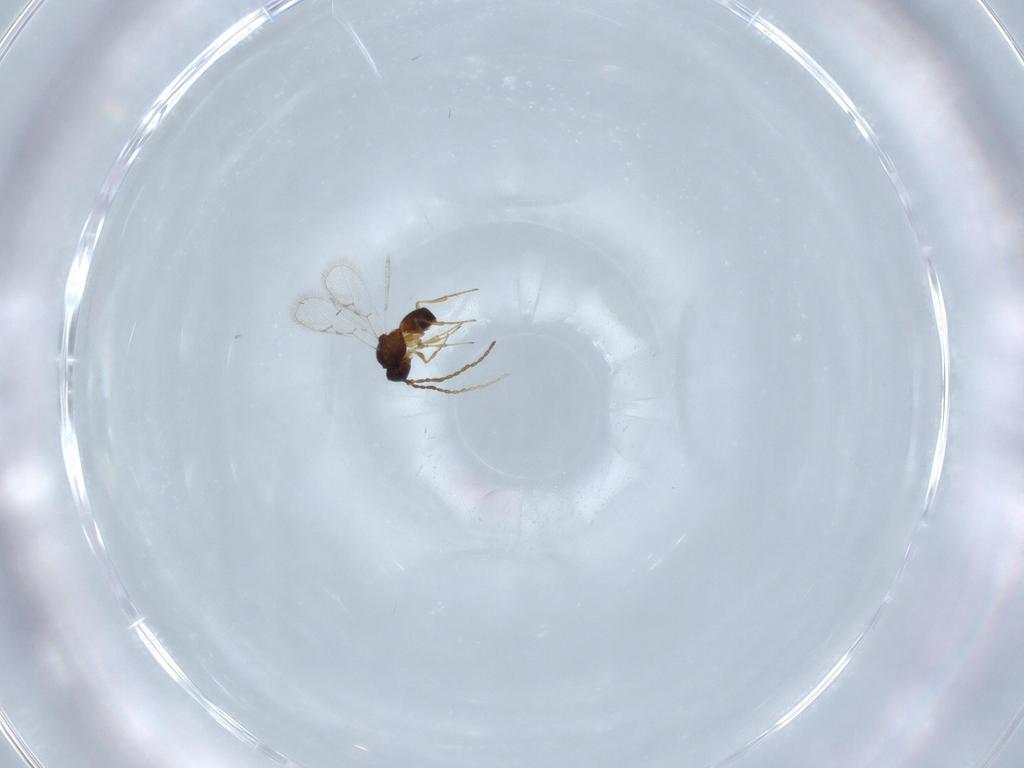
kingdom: Animalia
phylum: Arthropoda
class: Insecta
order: Hymenoptera
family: Figitidae
